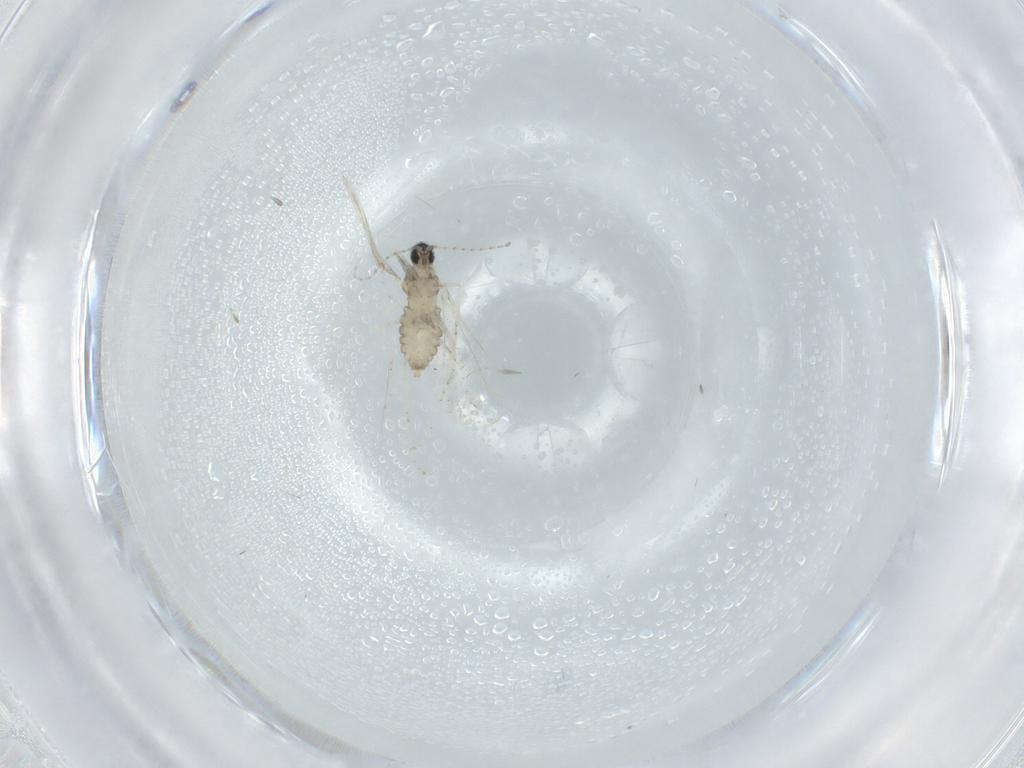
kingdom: Animalia
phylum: Arthropoda
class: Insecta
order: Diptera
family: Cecidomyiidae
